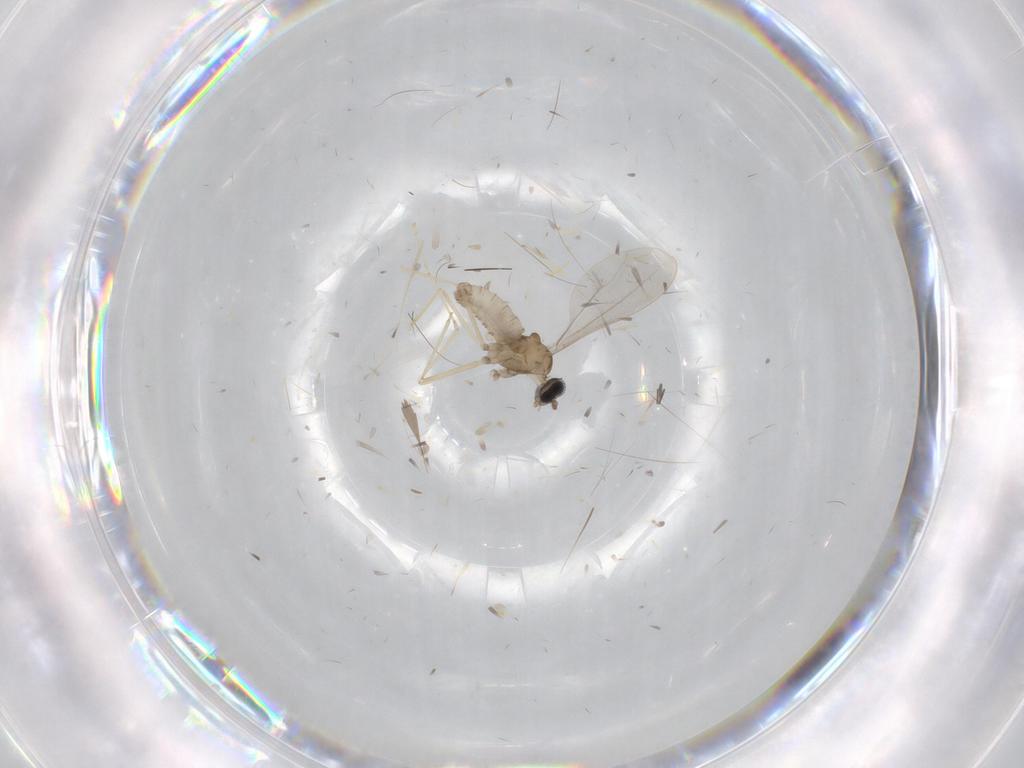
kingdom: Animalia
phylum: Arthropoda
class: Insecta
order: Diptera
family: Cecidomyiidae
